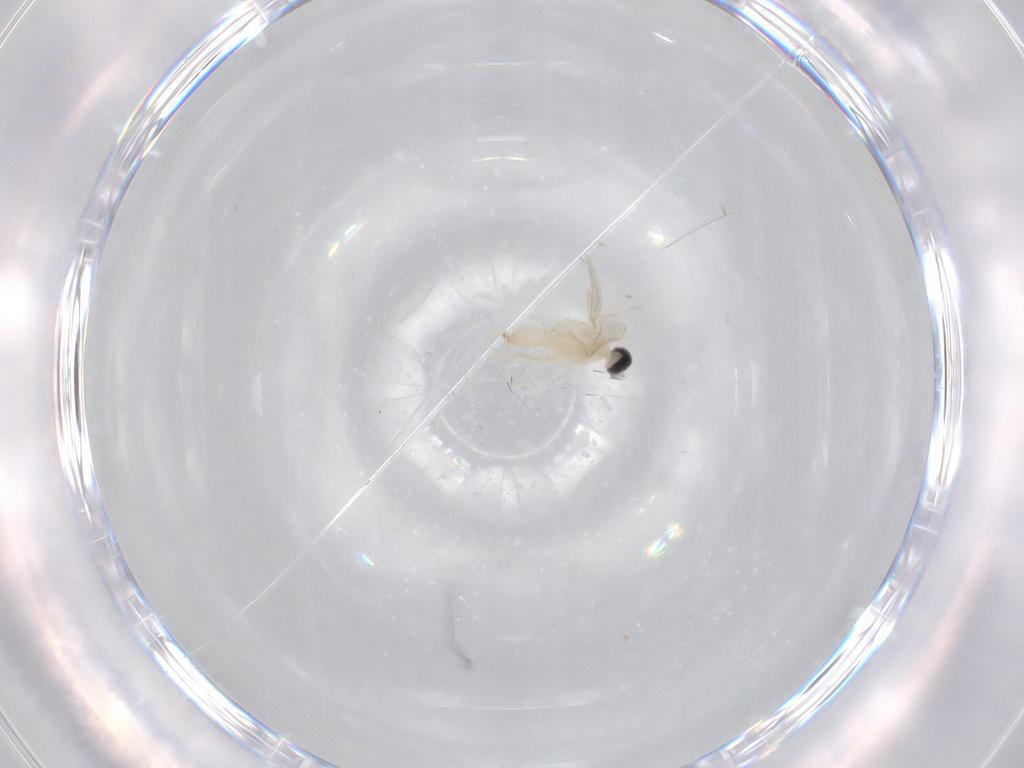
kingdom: Animalia
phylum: Arthropoda
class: Insecta
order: Diptera
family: Cecidomyiidae
